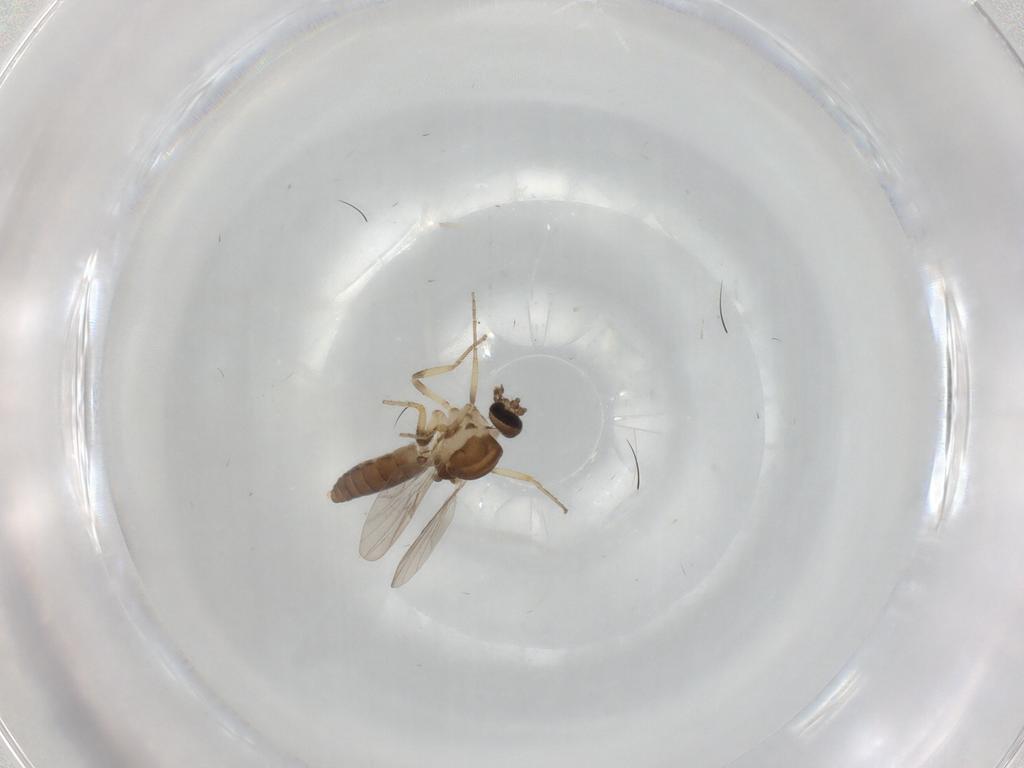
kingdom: Animalia
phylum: Arthropoda
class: Insecta
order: Diptera
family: Ceratopogonidae
